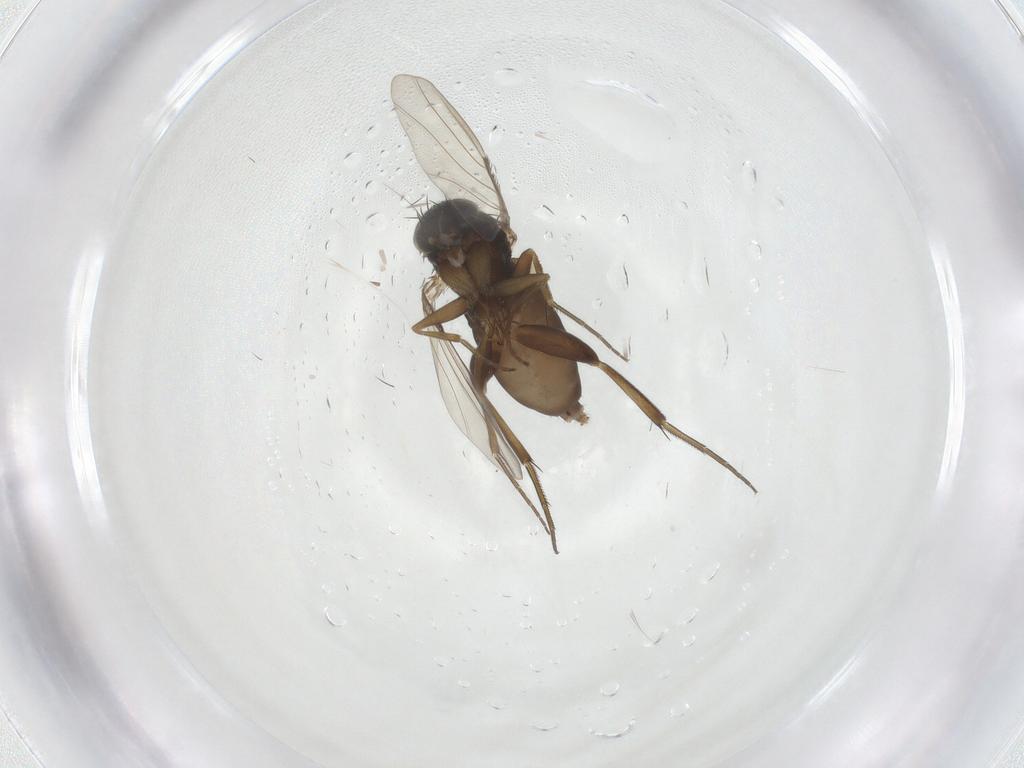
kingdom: Animalia
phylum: Arthropoda
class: Insecta
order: Diptera
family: Phoridae
